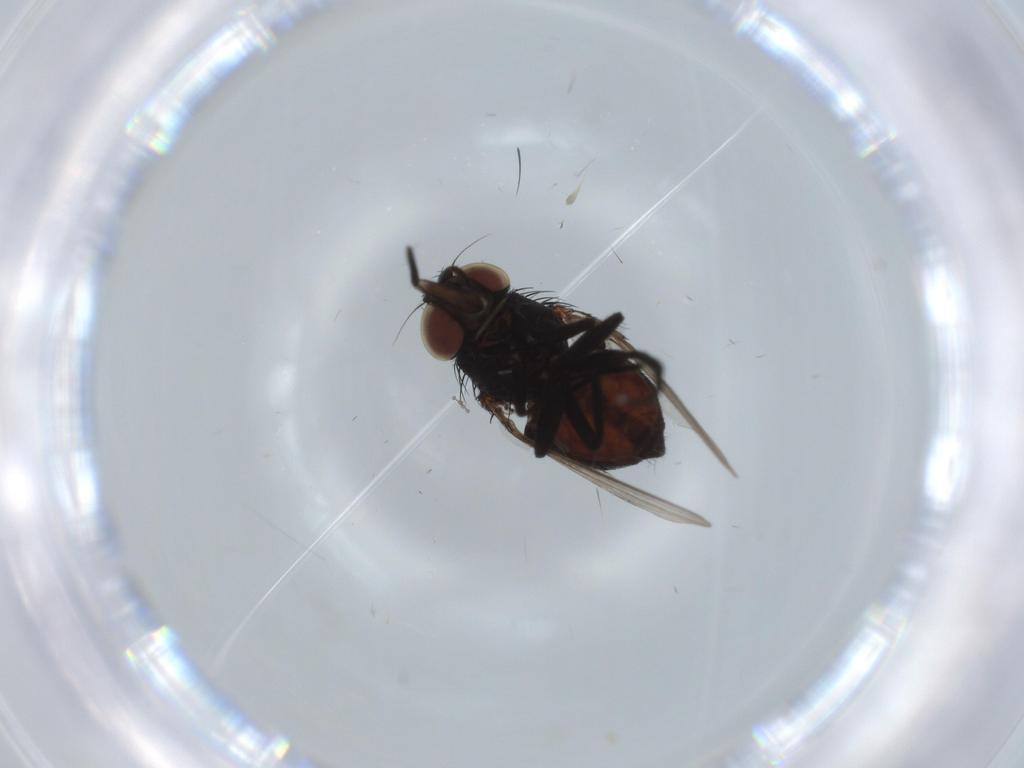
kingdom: Animalia
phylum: Arthropoda
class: Insecta
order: Diptera
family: Milichiidae
